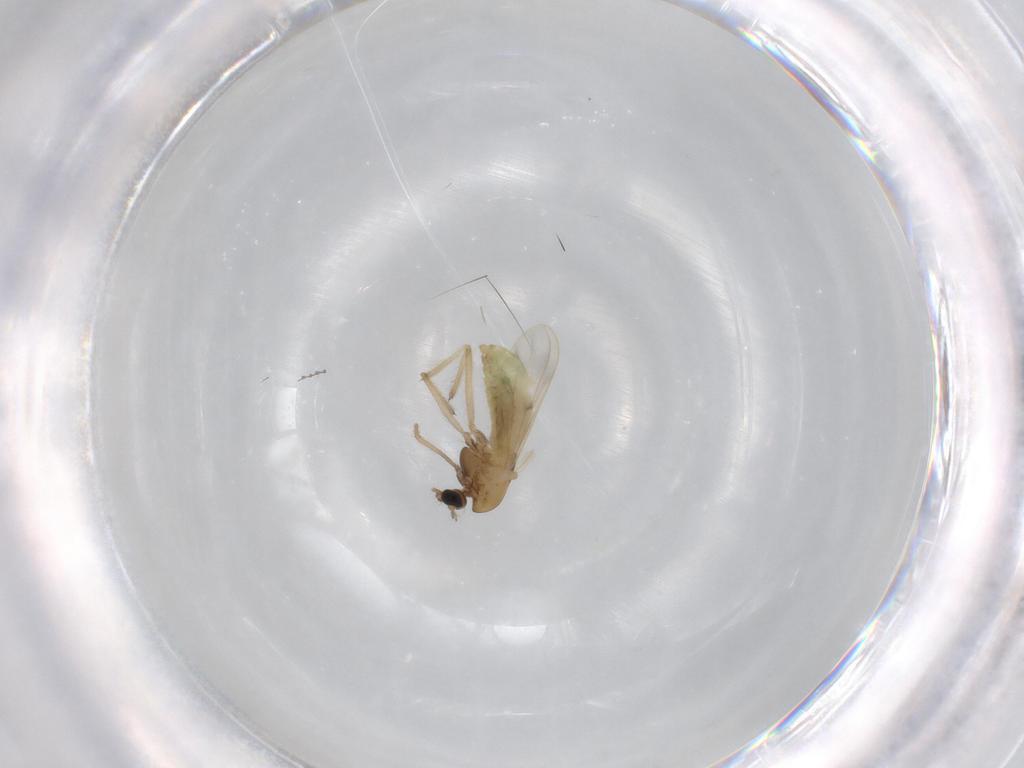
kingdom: Animalia
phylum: Arthropoda
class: Insecta
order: Diptera
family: Chironomidae
